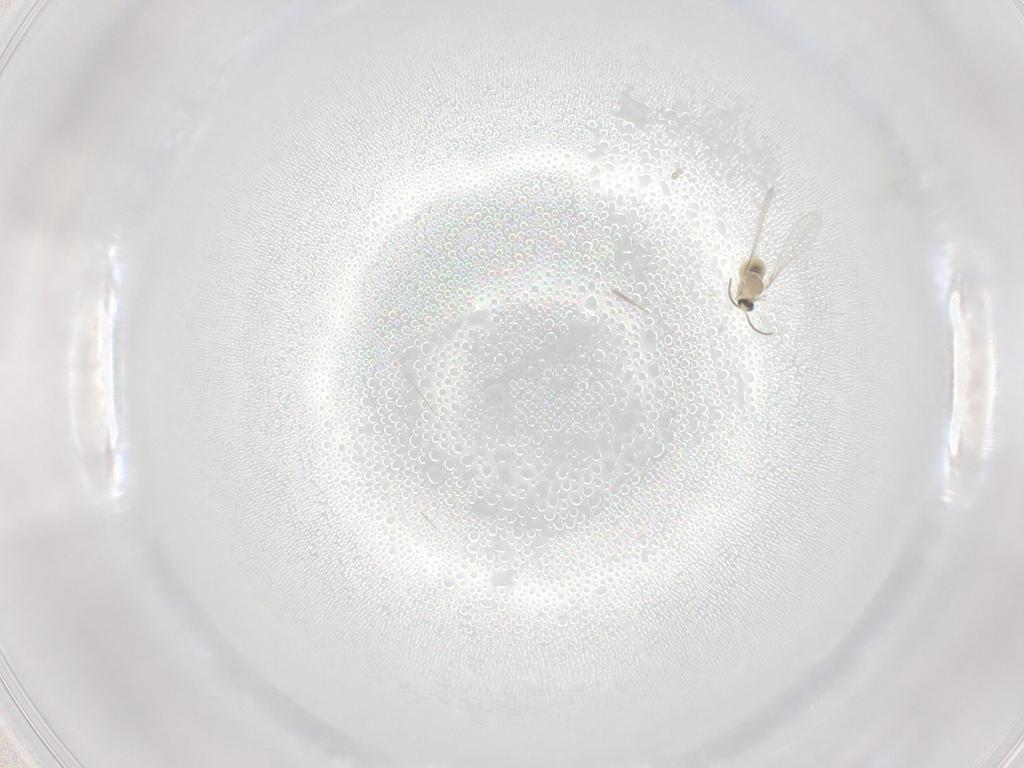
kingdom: Animalia
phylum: Arthropoda
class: Insecta
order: Diptera
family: Cecidomyiidae
